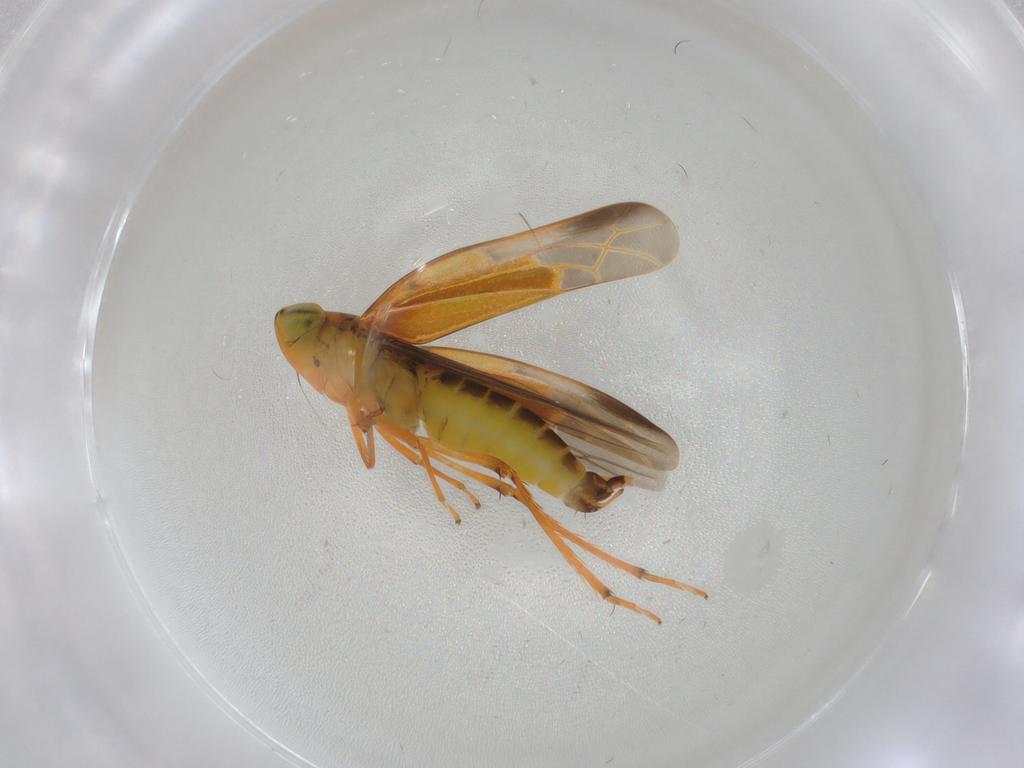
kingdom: Animalia
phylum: Arthropoda
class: Insecta
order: Hemiptera
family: Cicadellidae
